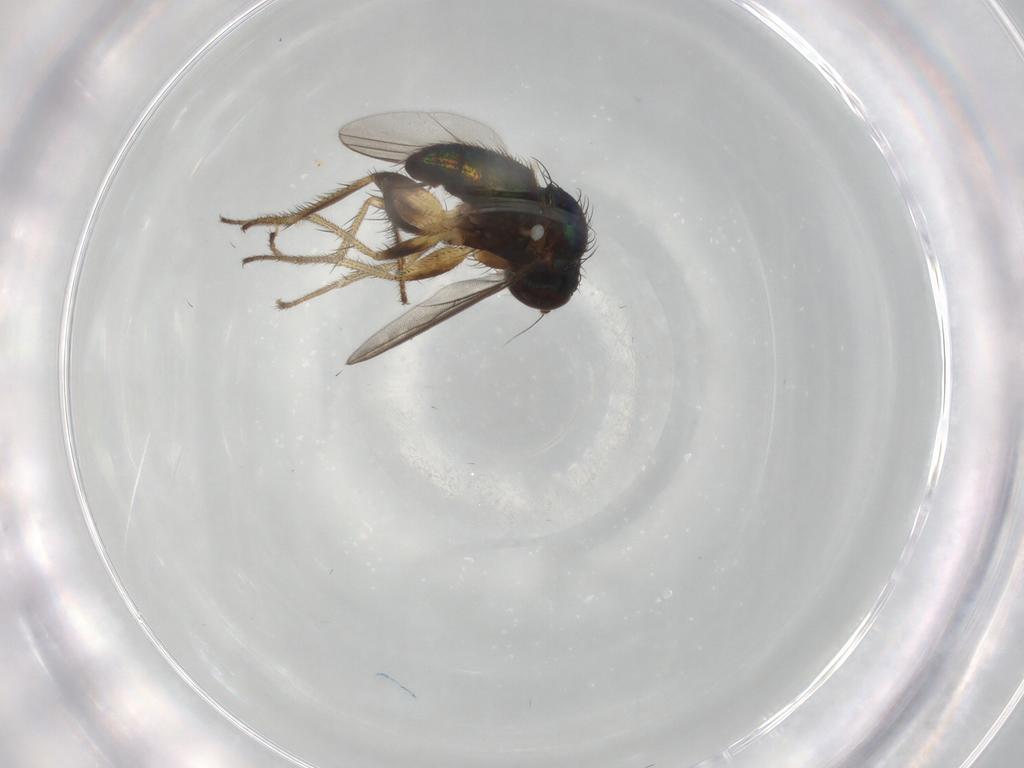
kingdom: Animalia
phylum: Arthropoda
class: Insecta
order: Diptera
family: Dolichopodidae
